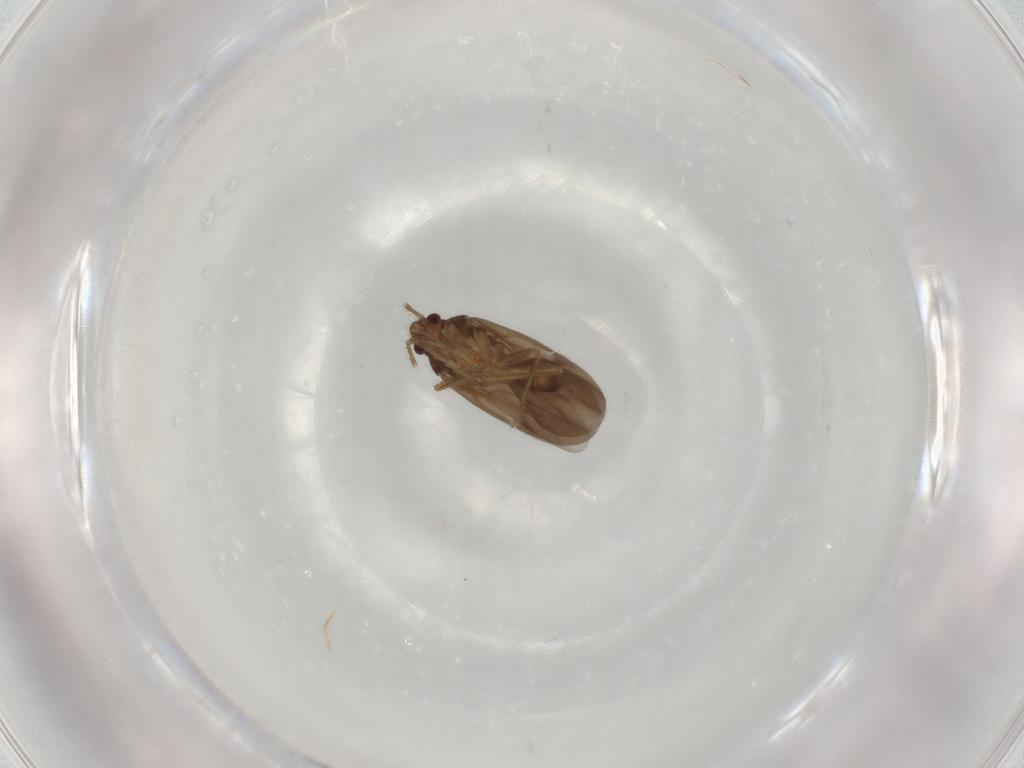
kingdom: Animalia
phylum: Arthropoda
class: Insecta
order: Hemiptera
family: Ceratocombidae
